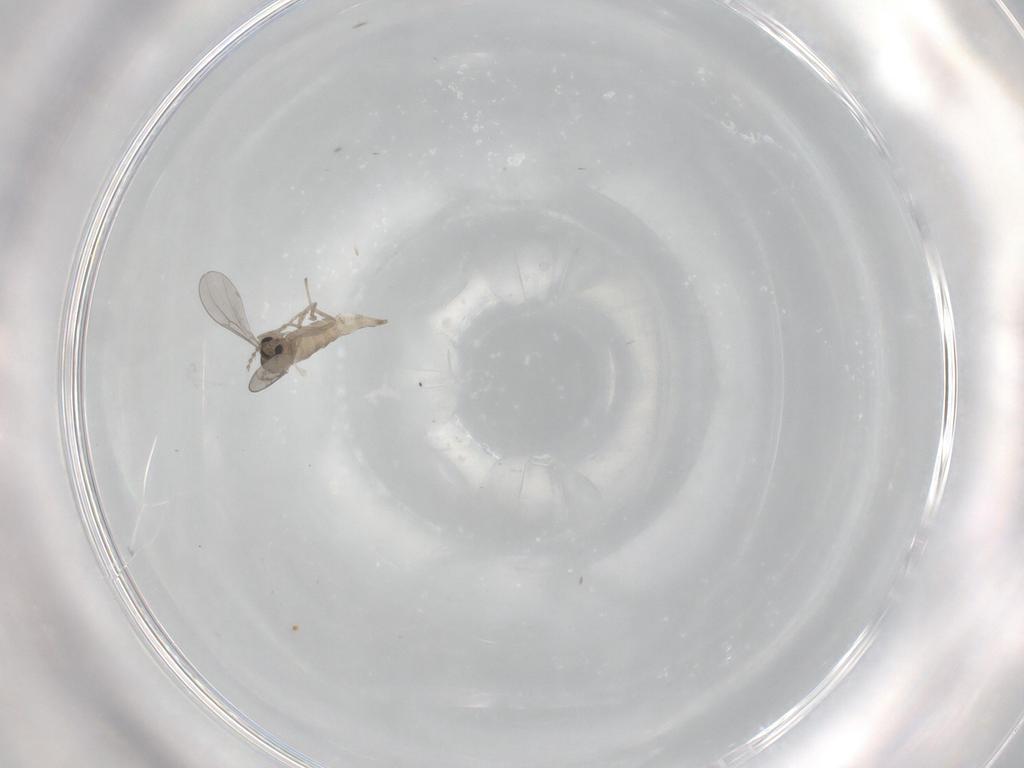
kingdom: Animalia
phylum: Arthropoda
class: Insecta
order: Diptera
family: Cecidomyiidae
